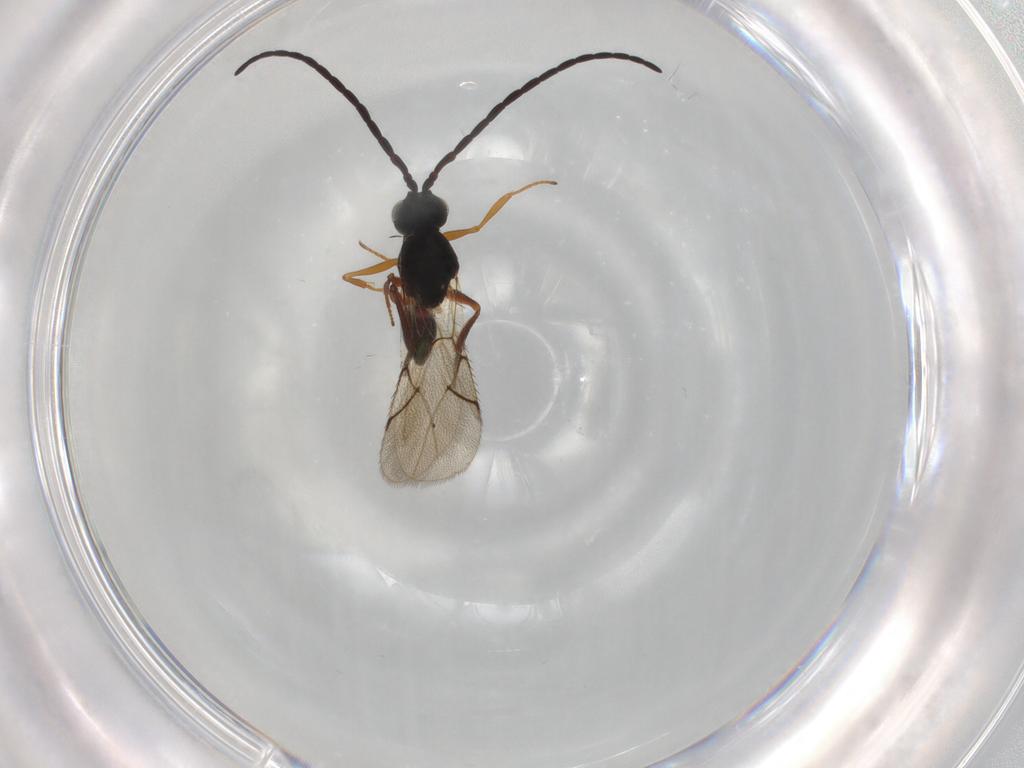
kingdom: Animalia
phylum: Arthropoda
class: Insecta
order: Hymenoptera
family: Figitidae
